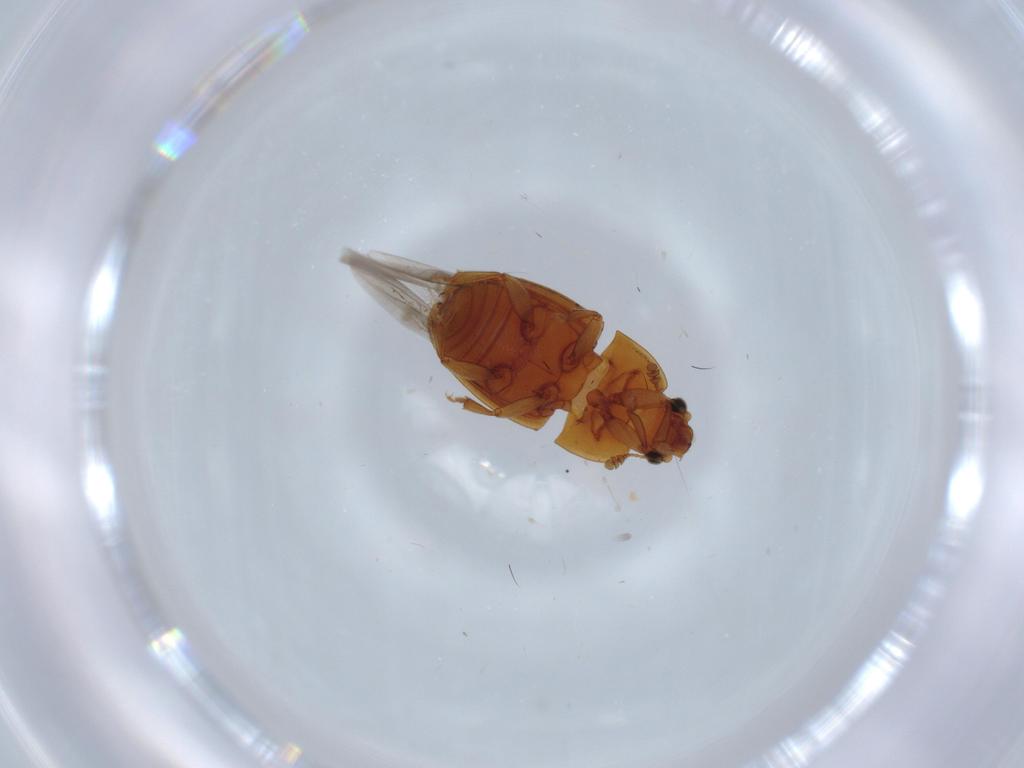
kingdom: Animalia
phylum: Arthropoda
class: Insecta
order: Coleoptera
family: Nitidulidae
